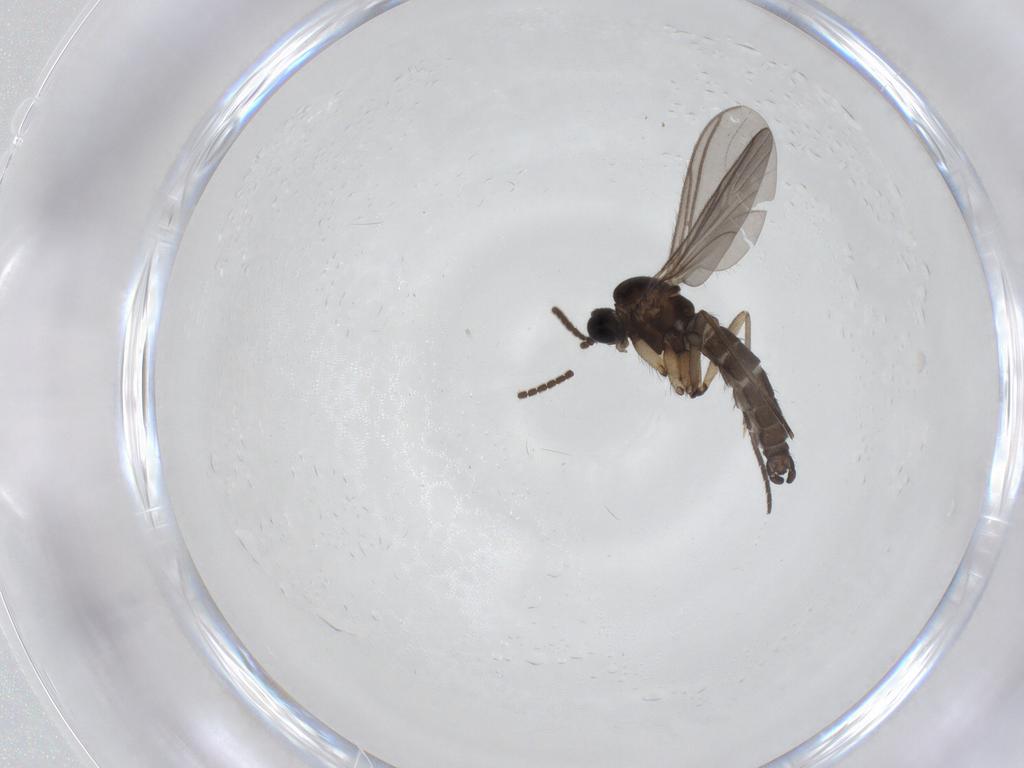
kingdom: Animalia
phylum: Arthropoda
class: Insecta
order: Diptera
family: Sciaridae
